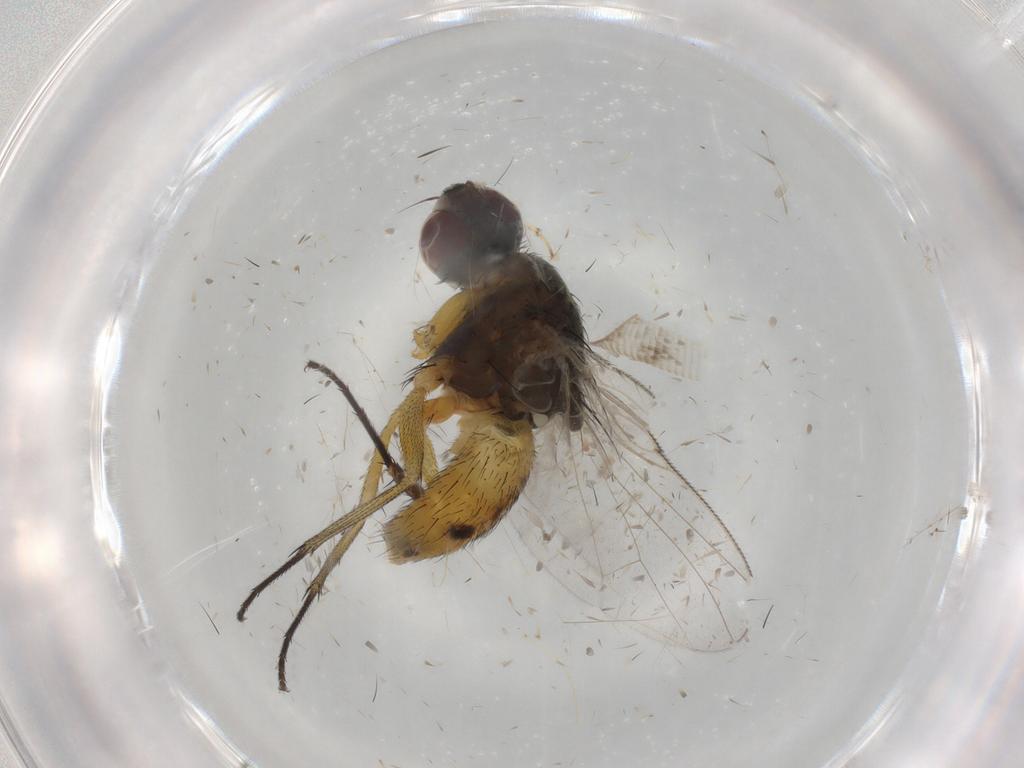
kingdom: Animalia
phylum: Arthropoda
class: Insecta
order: Diptera
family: Muscidae
